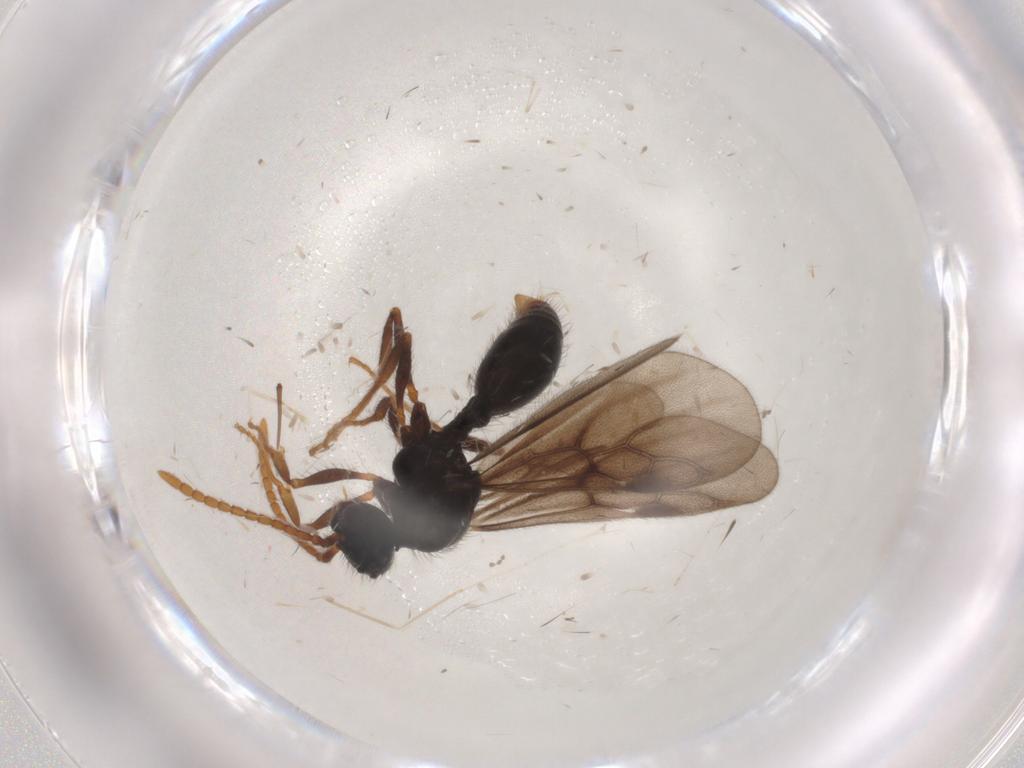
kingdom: Animalia
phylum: Arthropoda
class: Insecta
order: Hymenoptera
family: Formicidae
